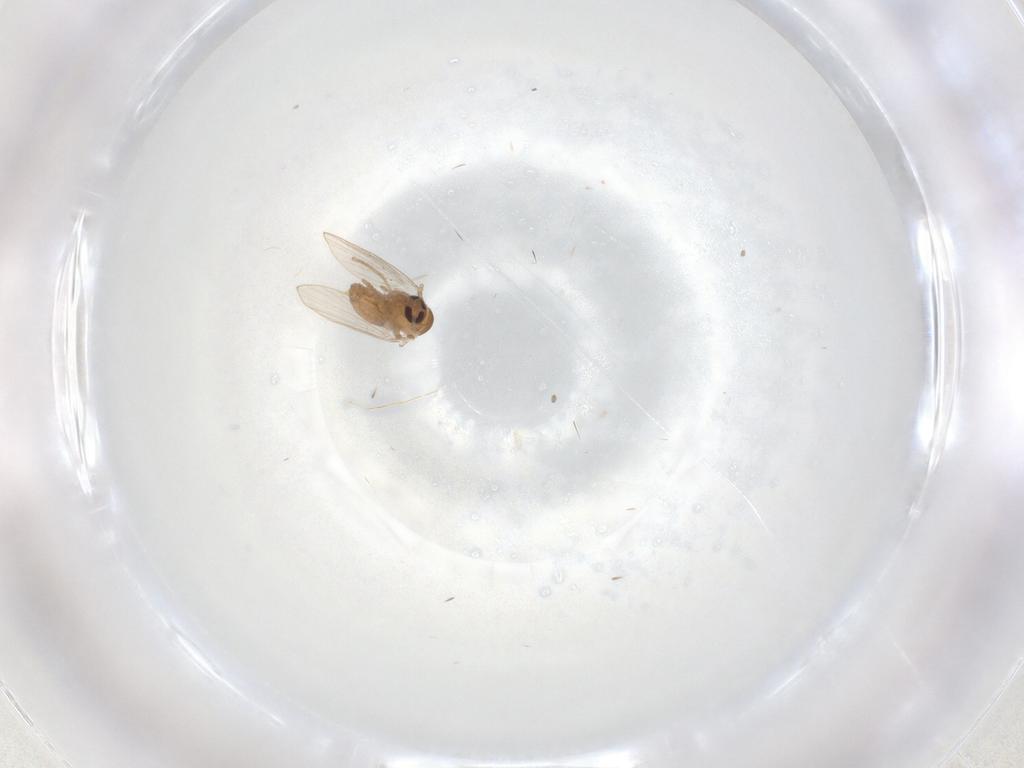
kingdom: Animalia
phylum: Arthropoda
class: Insecta
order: Diptera
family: Psychodidae
